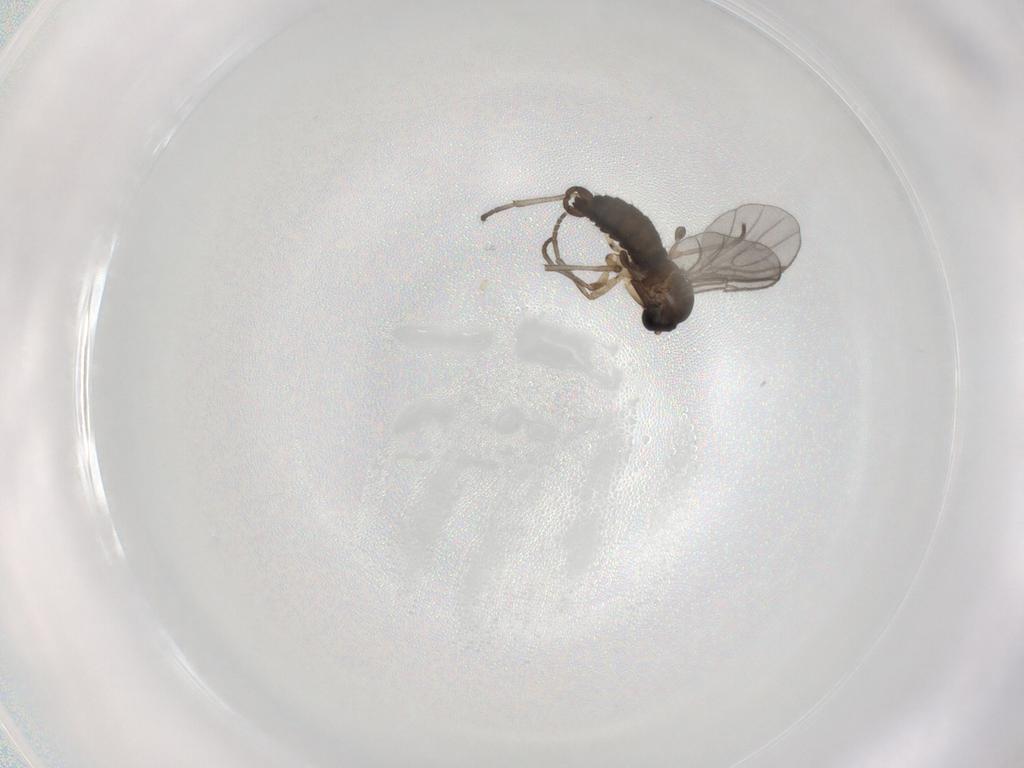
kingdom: Animalia
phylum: Arthropoda
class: Insecta
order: Diptera
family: Sciaridae
